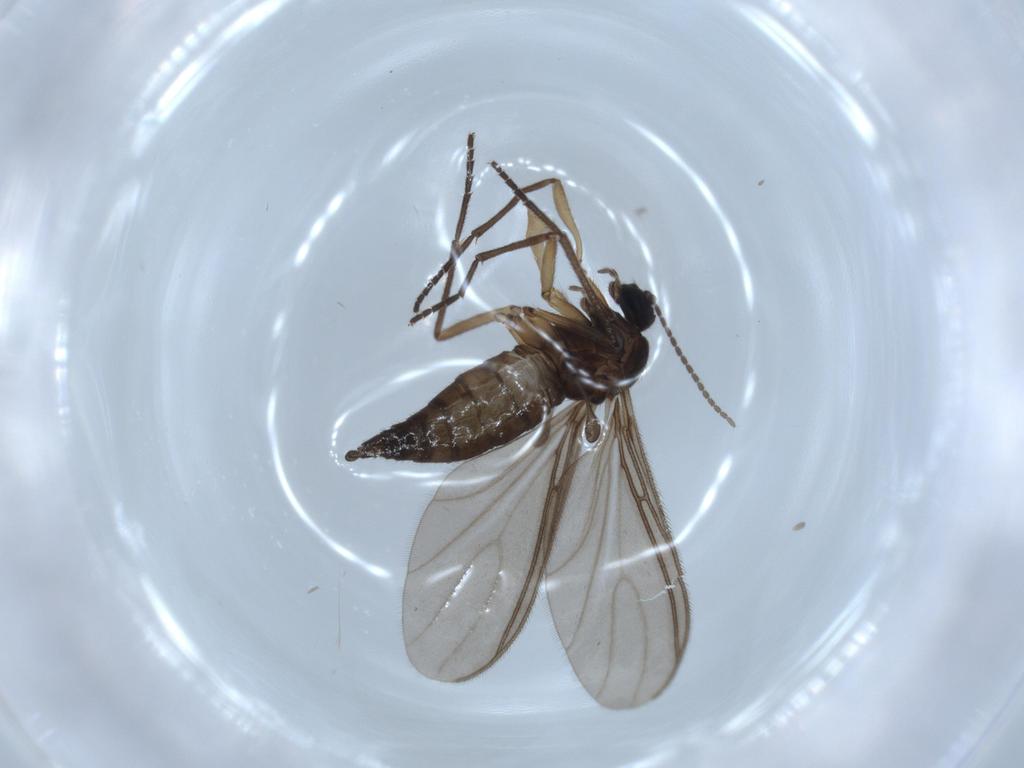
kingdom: Animalia
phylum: Arthropoda
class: Insecta
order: Diptera
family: Sciaridae
